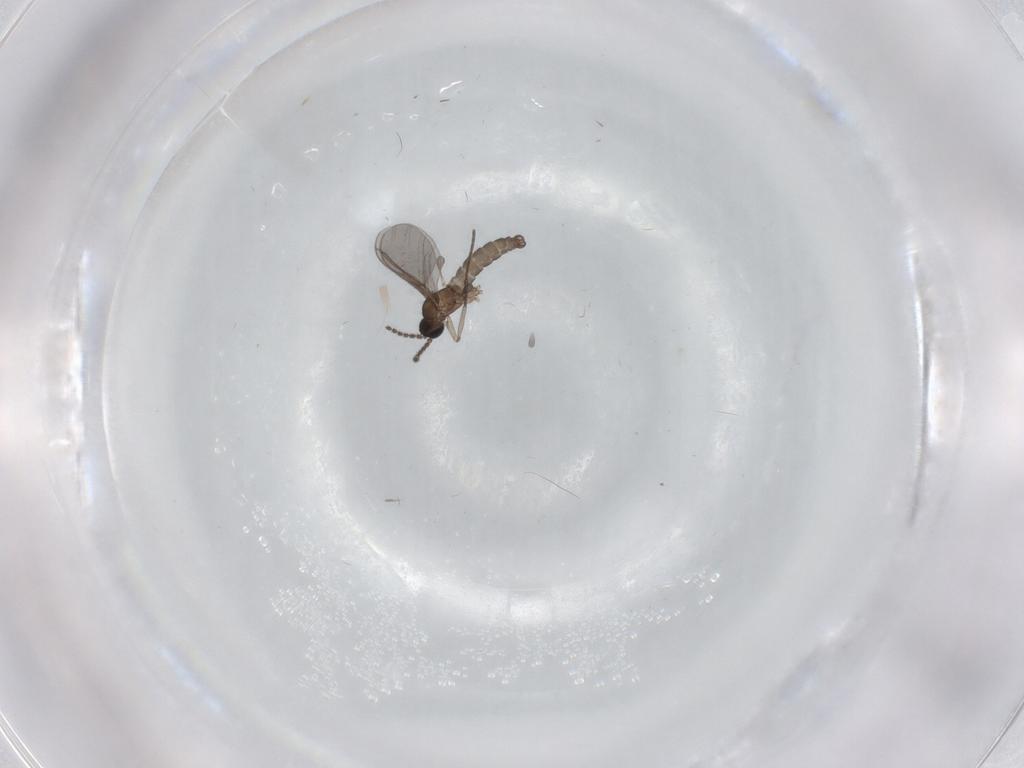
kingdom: Animalia
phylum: Arthropoda
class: Insecta
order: Diptera
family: Sciaridae
